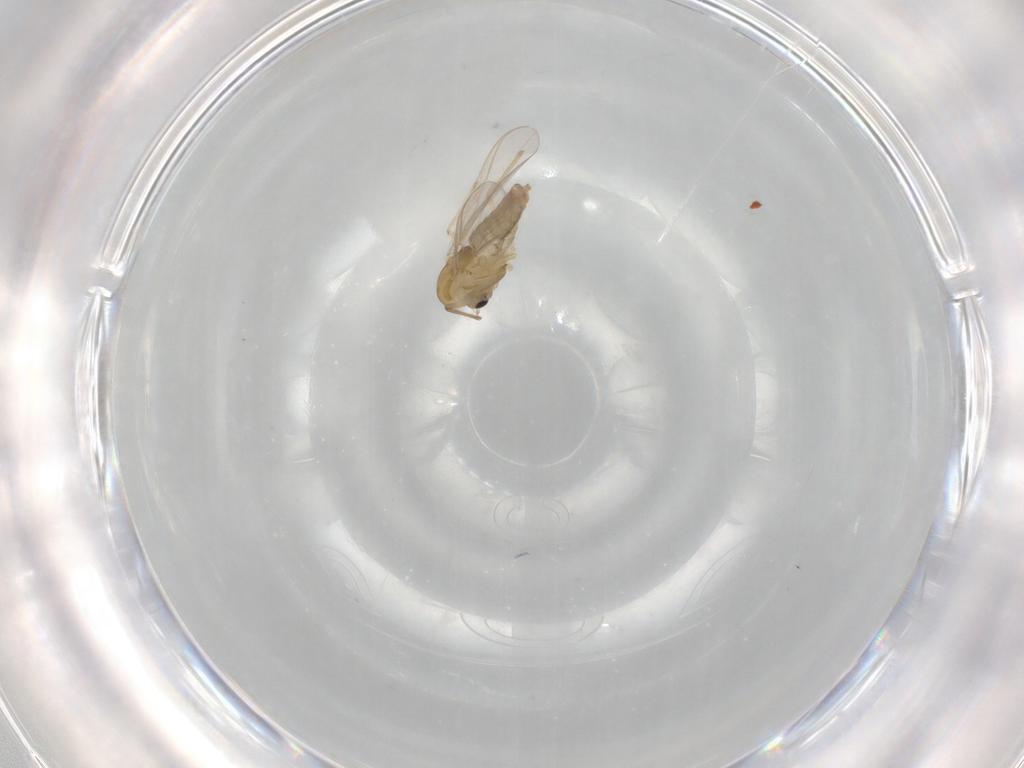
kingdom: Animalia
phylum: Arthropoda
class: Insecta
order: Diptera
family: Chironomidae
